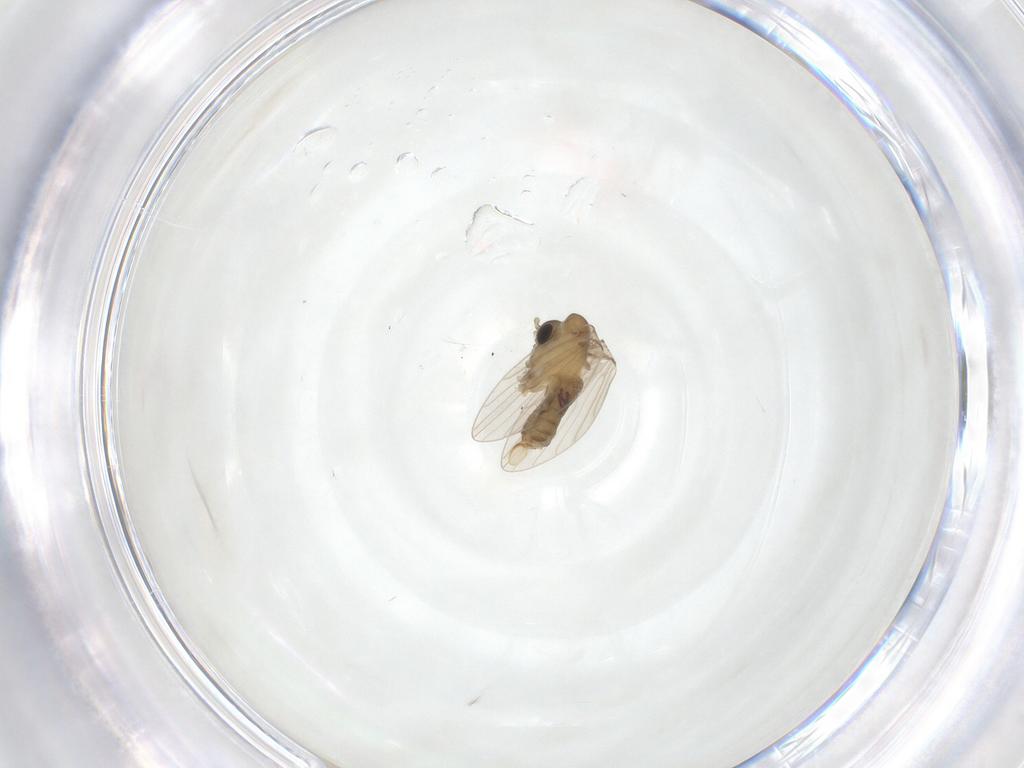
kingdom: Animalia
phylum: Arthropoda
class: Insecta
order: Diptera
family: Psychodidae
